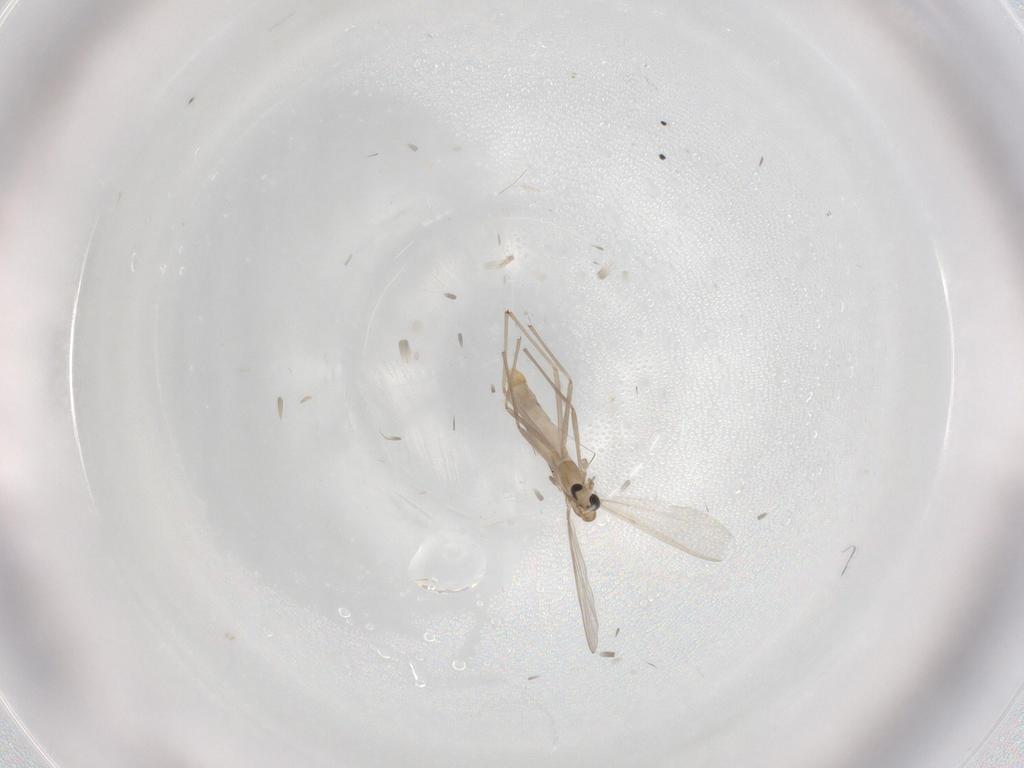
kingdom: Animalia
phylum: Arthropoda
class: Insecta
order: Diptera
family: Chironomidae
